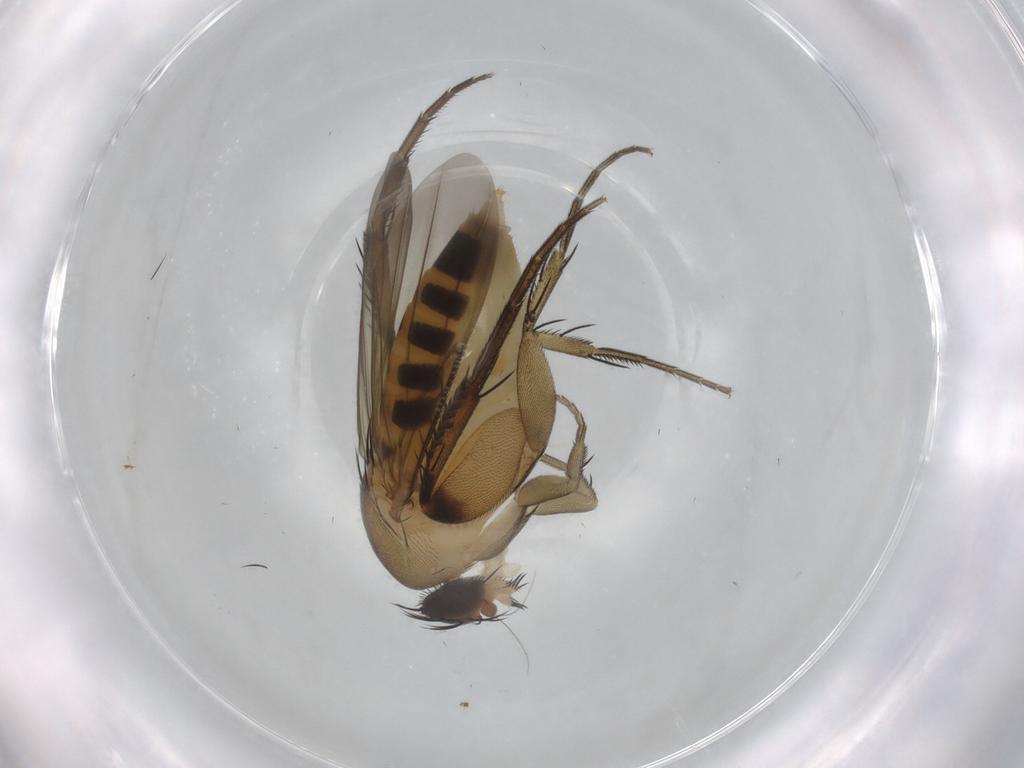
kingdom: Animalia
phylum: Arthropoda
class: Insecta
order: Diptera
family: Phoridae
